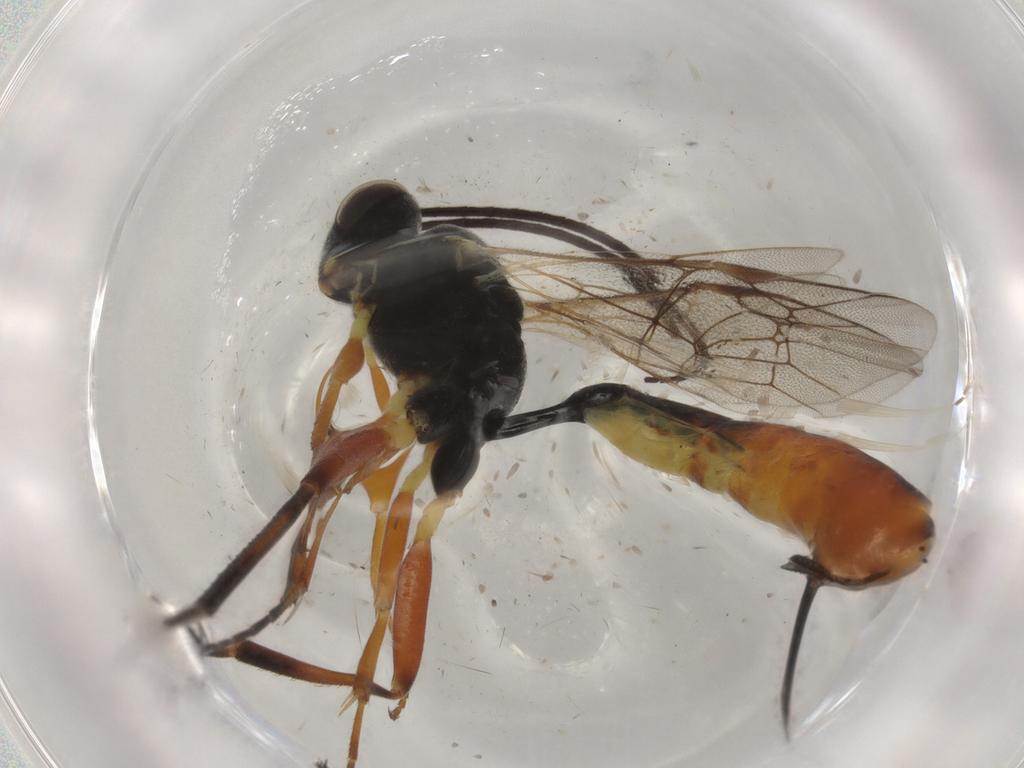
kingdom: Animalia
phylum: Arthropoda
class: Insecta
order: Hymenoptera
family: Ichneumonidae
